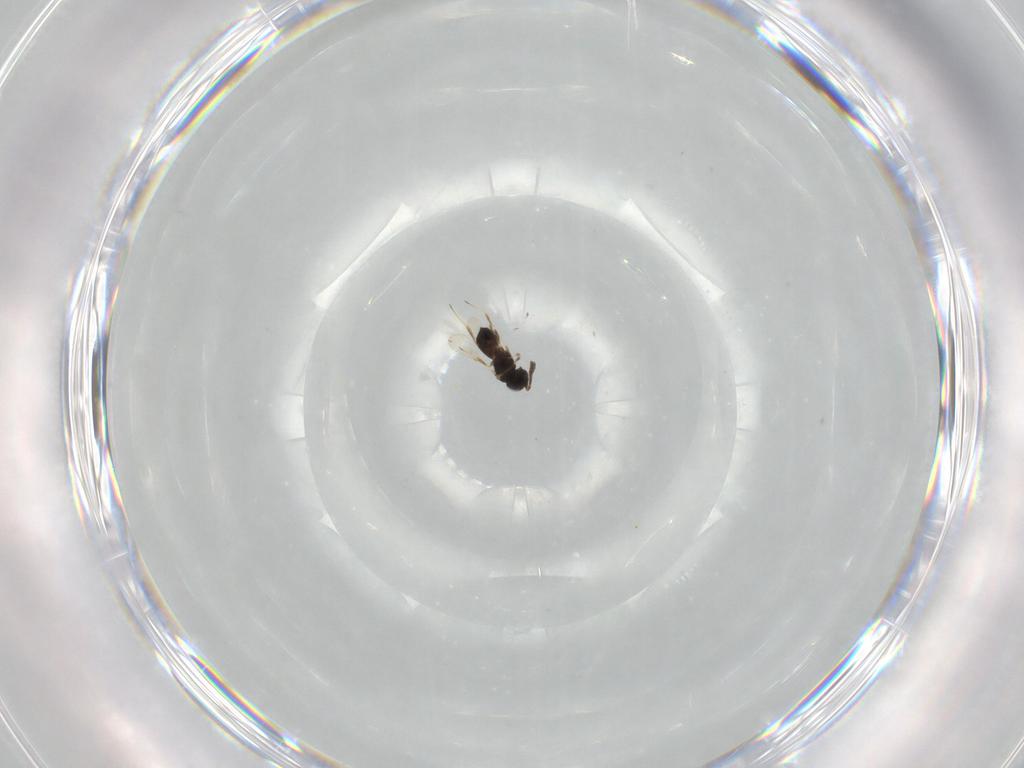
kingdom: Animalia
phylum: Arthropoda
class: Insecta
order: Hymenoptera
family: Scelionidae
